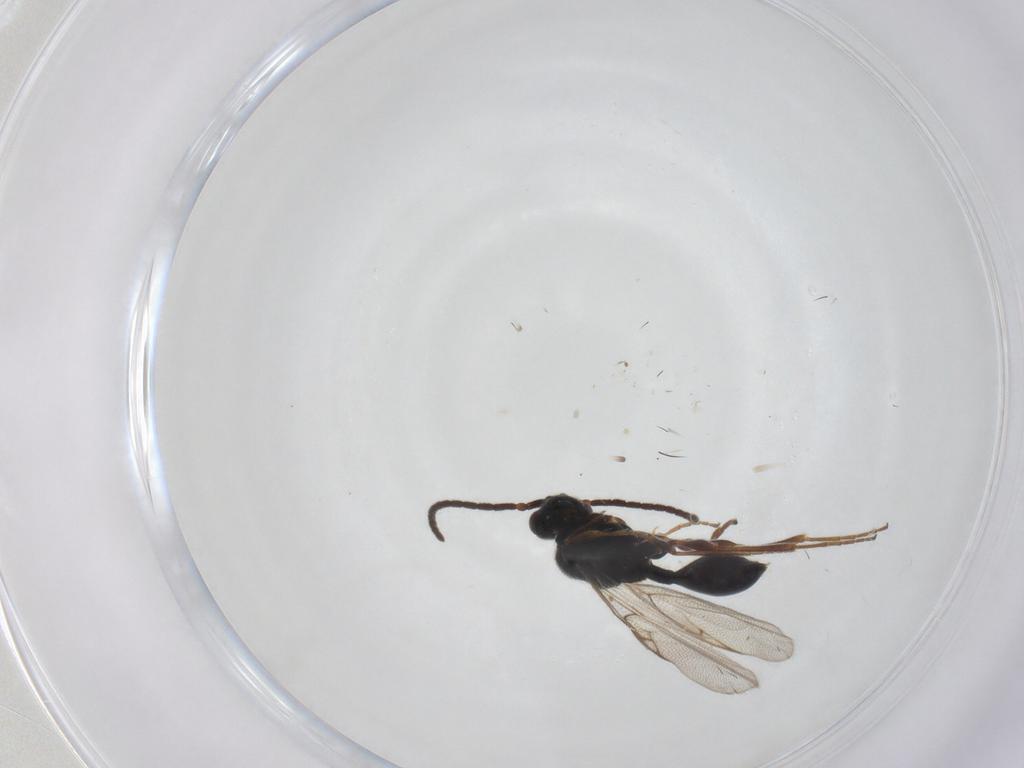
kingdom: Animalia
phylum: Arthropoda
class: Insecta
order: Hymenoptera
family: Diapriidae
